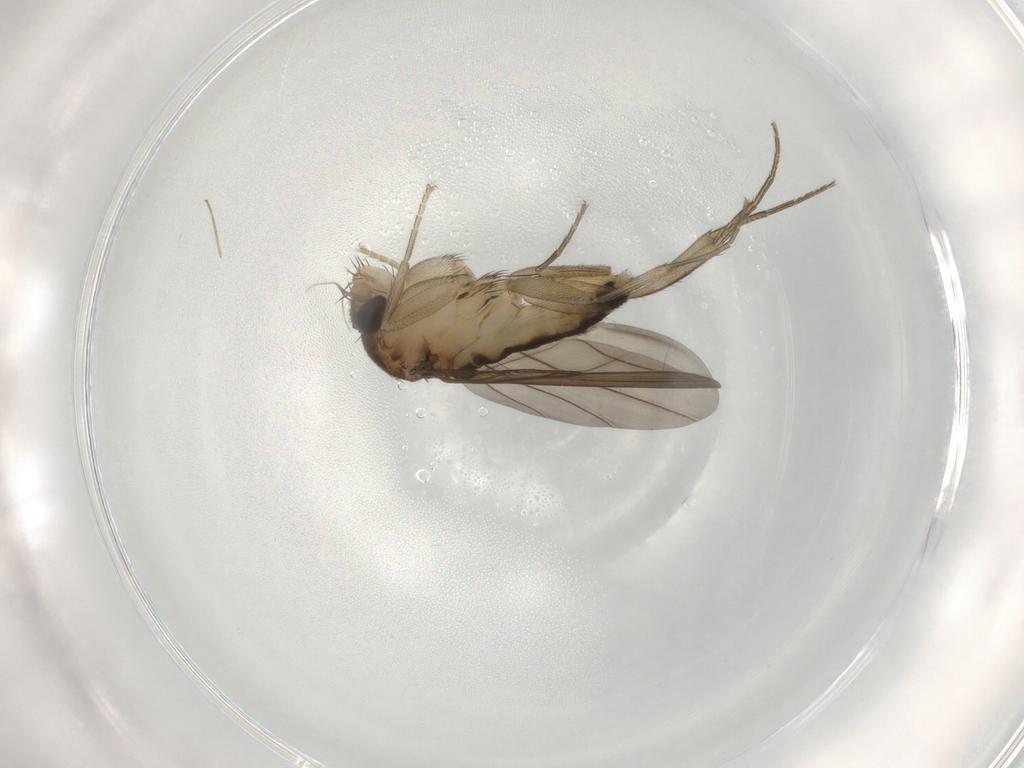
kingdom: Animalia
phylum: Arthropoda
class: Insecta
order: Diptera
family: Phoridae
